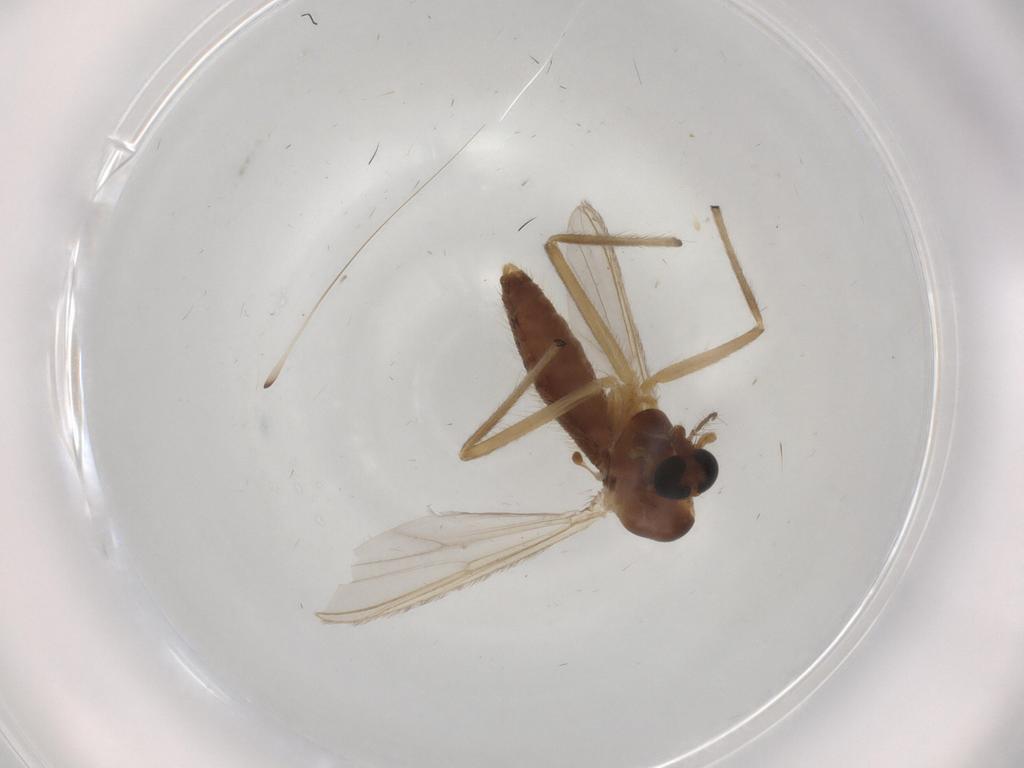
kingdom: Animalia
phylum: Arthropoda
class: Insecta
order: Diptera
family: Chironomidae
